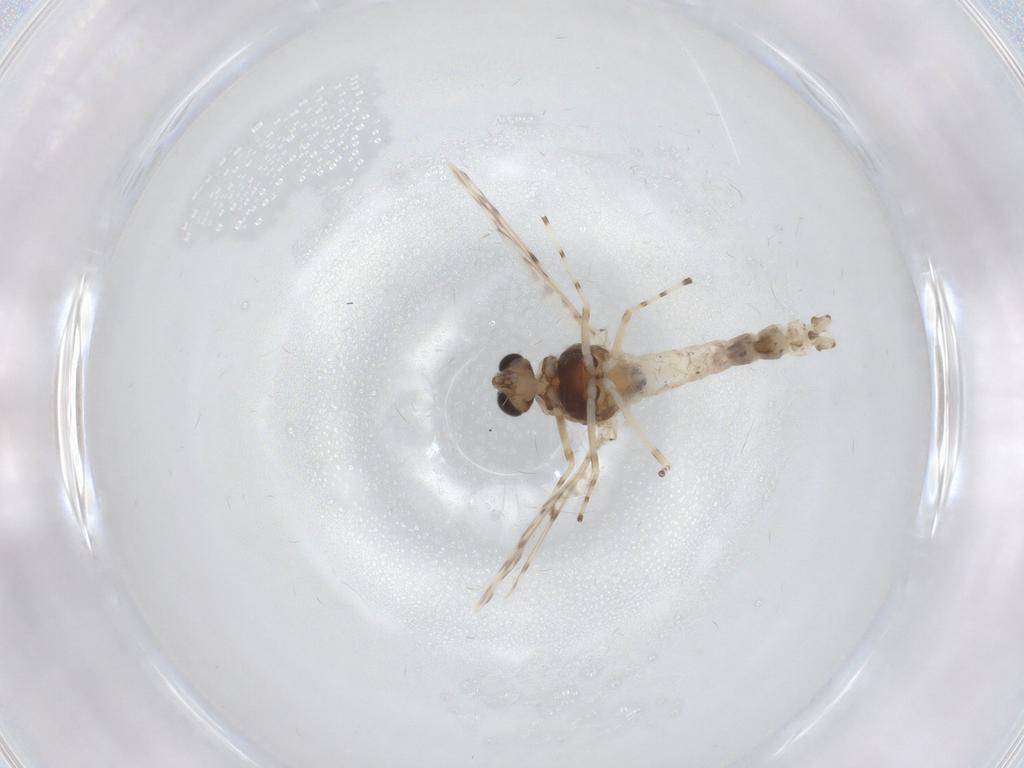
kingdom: Animalia
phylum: Arthropoda
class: Insecta
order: Diptera
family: Chironomidae
